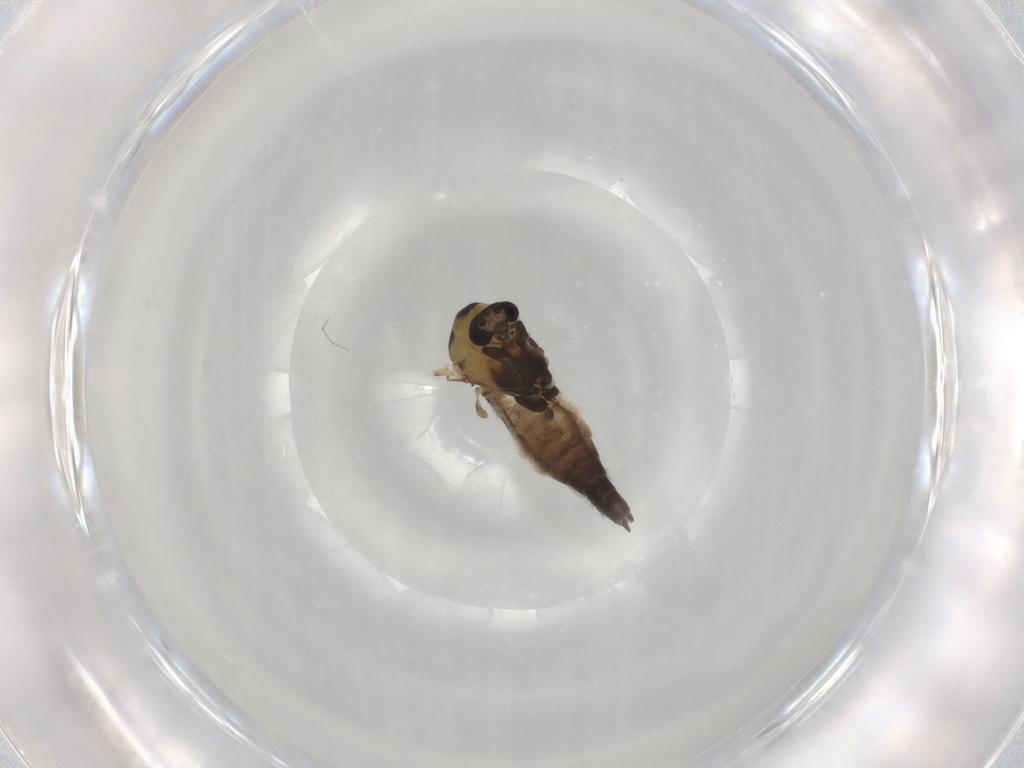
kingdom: Animalia
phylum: Arthropoda
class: Insecta
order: Diptera
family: Chironomidae
